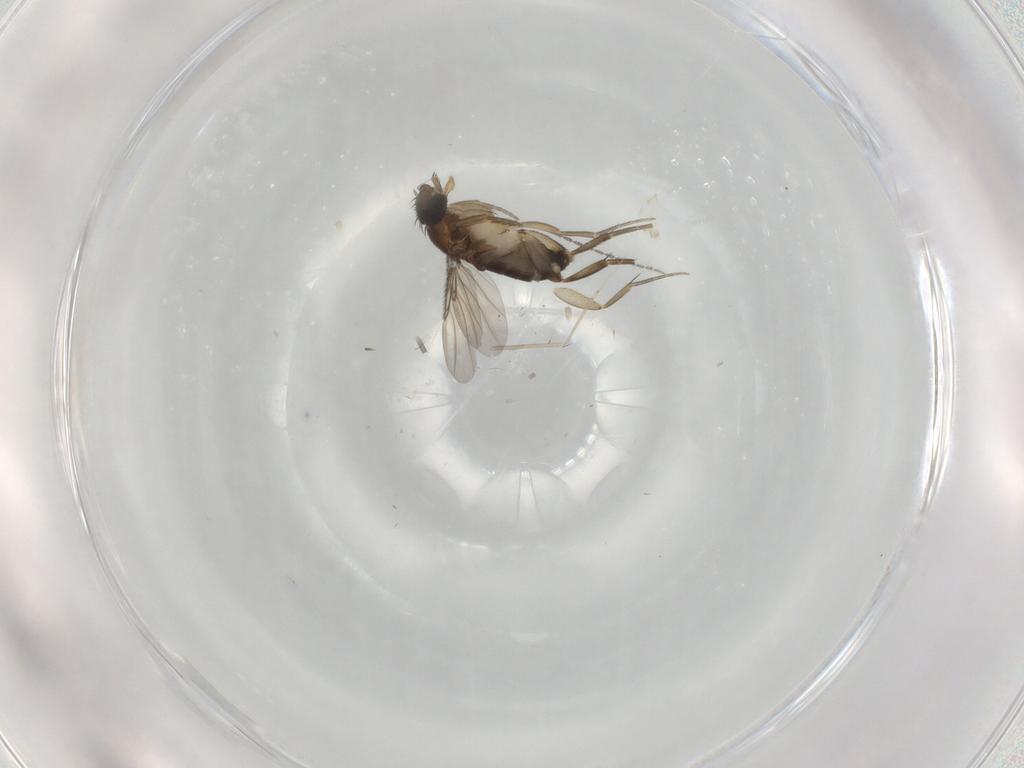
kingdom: Animalia
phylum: Arthropoda
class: Insecta
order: Diptera
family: Phoridae
